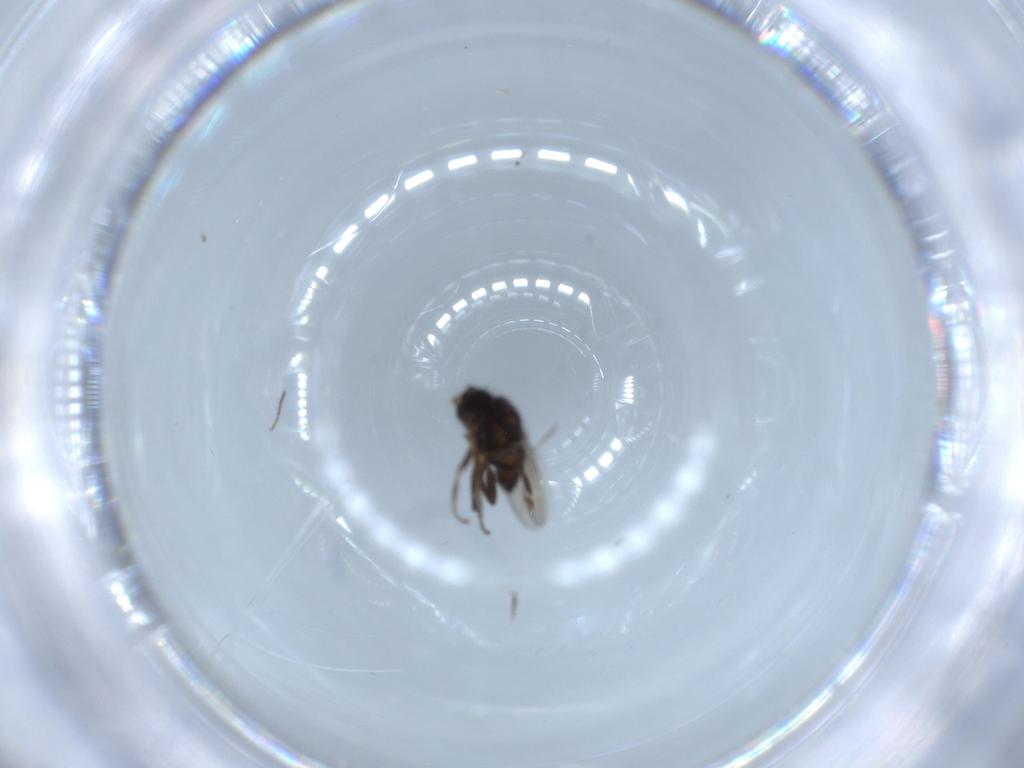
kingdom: Animalia
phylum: Arthropoda
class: Insecta
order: Diptera
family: Sphaeroceridae
